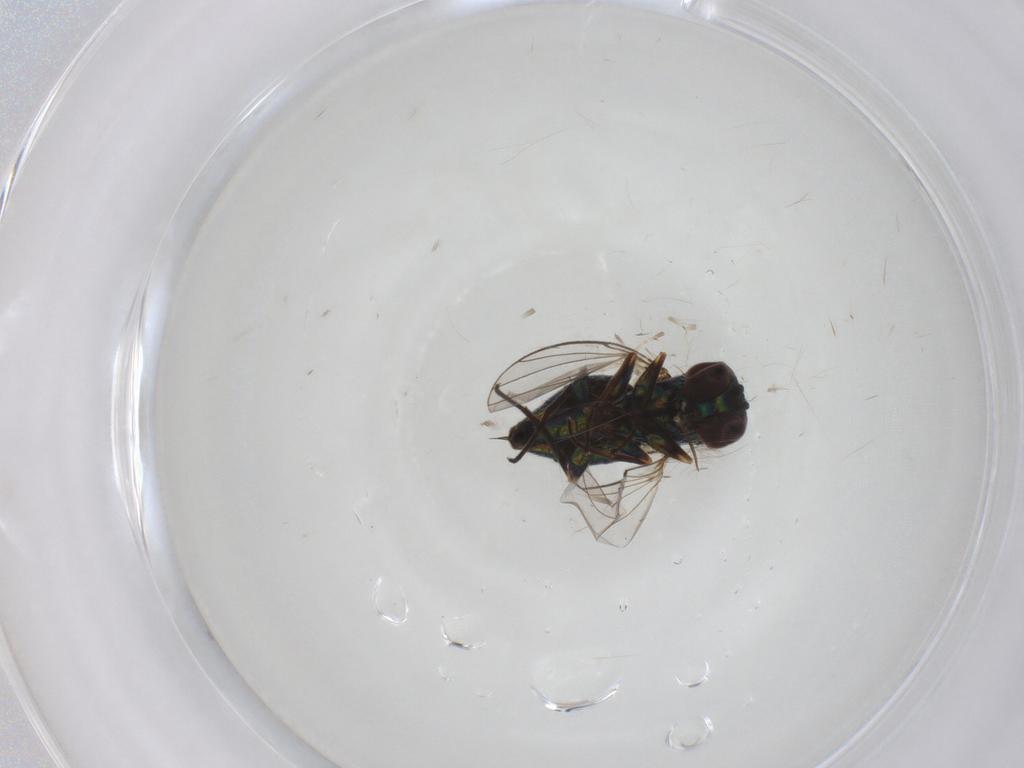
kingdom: Animalia
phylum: Arthropoda
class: Insecta
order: Diptera
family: Dolichopodidae
